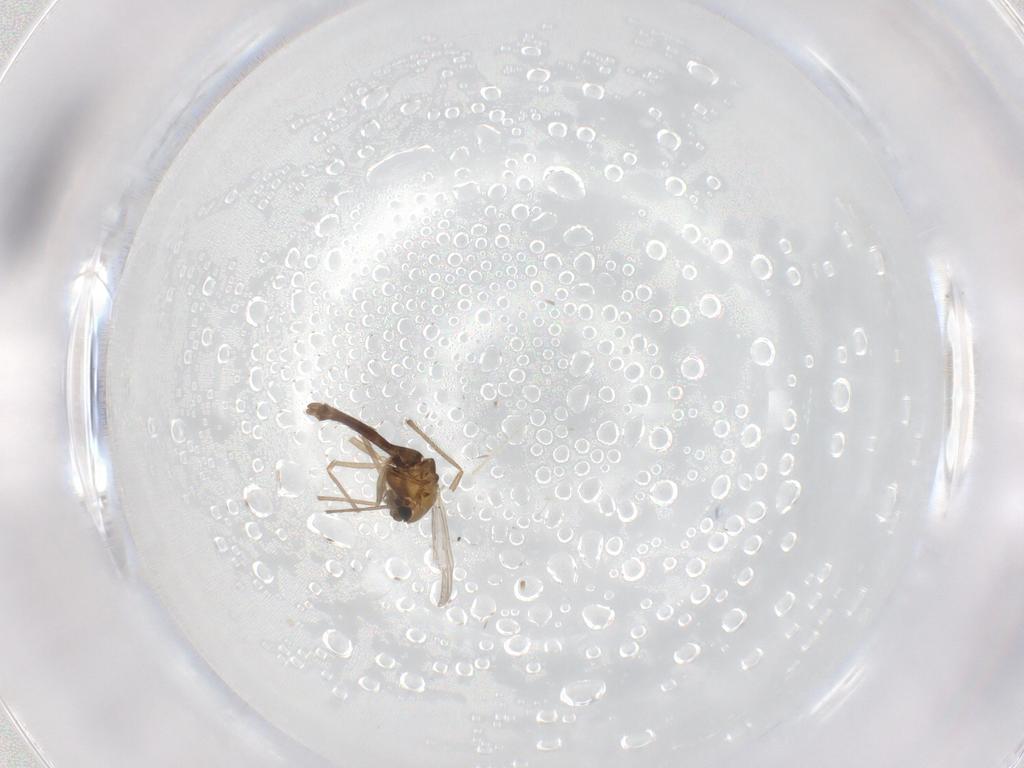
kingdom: Animalia
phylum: Arthropoda
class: Insecta
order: Diptera
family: Chironomidae
